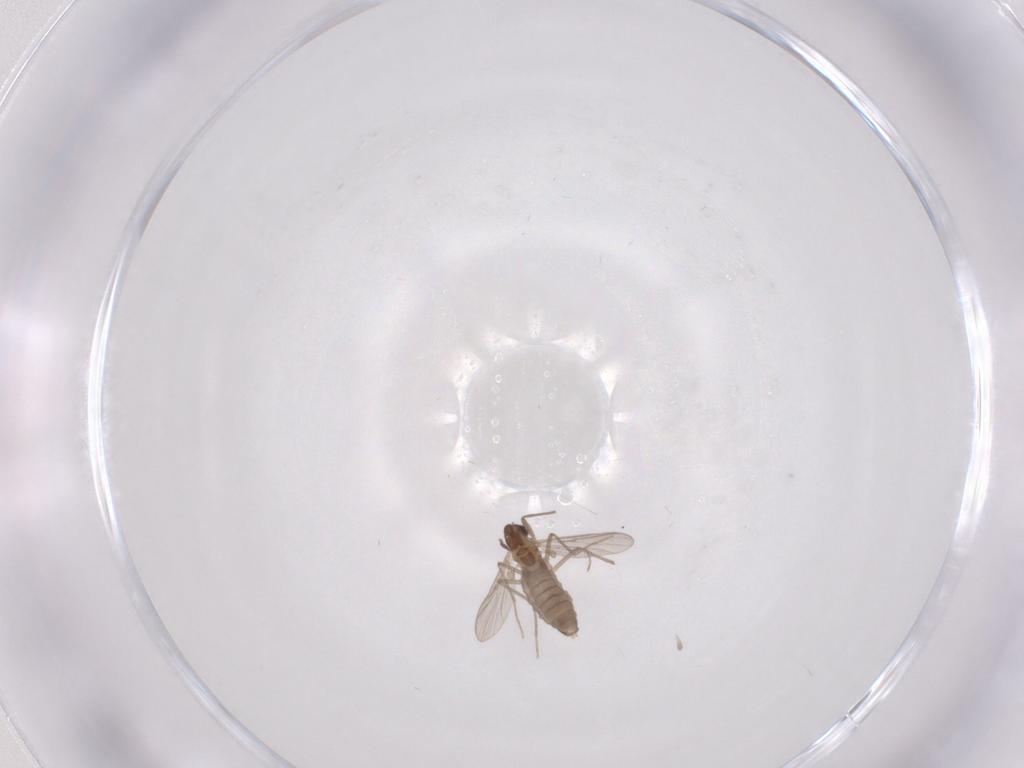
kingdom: Animalia
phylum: Arthropoda
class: Insecta
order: Diptera
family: Chironomidae
